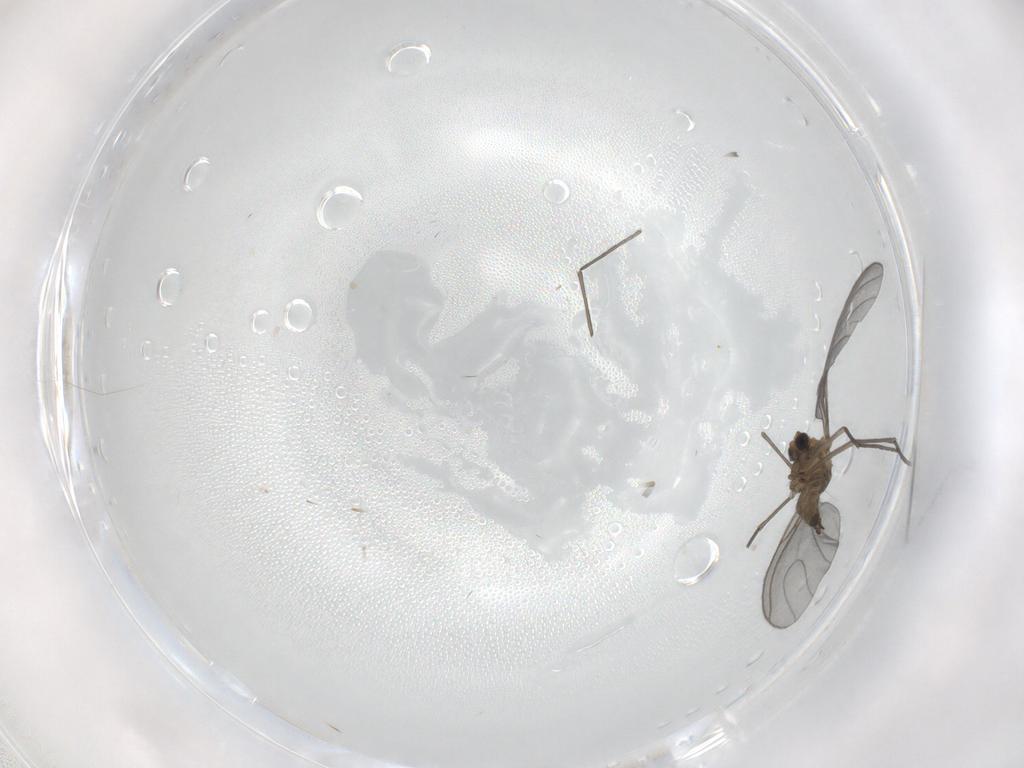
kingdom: Animalia
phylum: Arthropoda
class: Insecta
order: Diptera
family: Sciaridae
